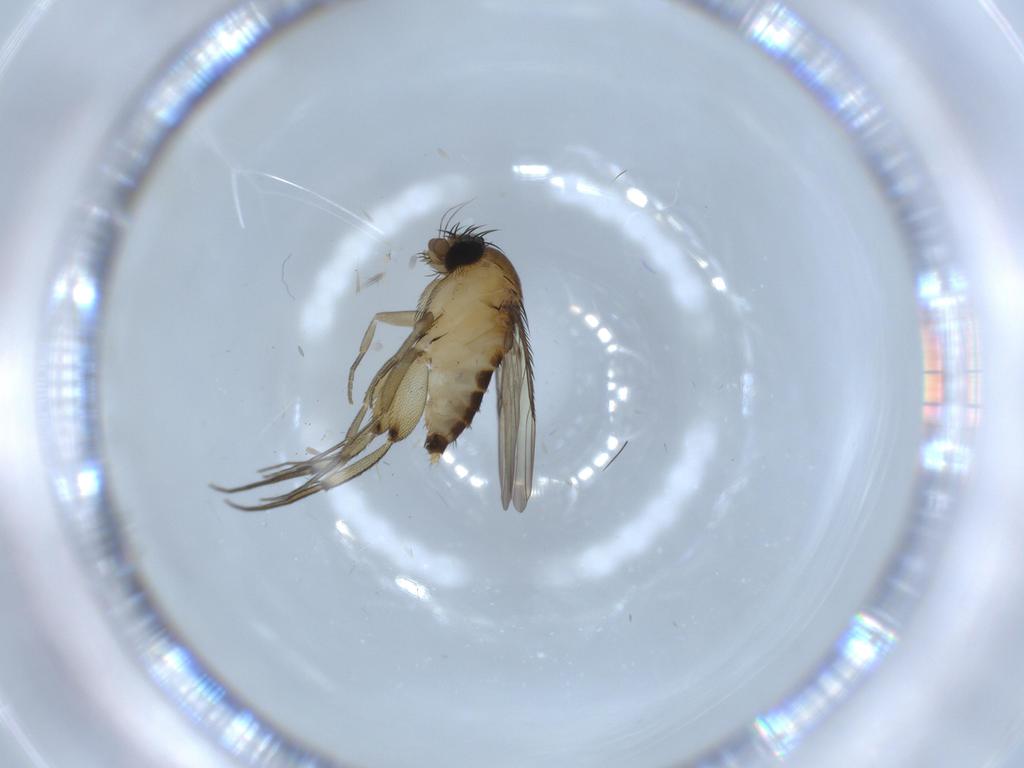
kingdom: Animalia
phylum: Arthropoda
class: Insecta
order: Diptera
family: Phoridae
